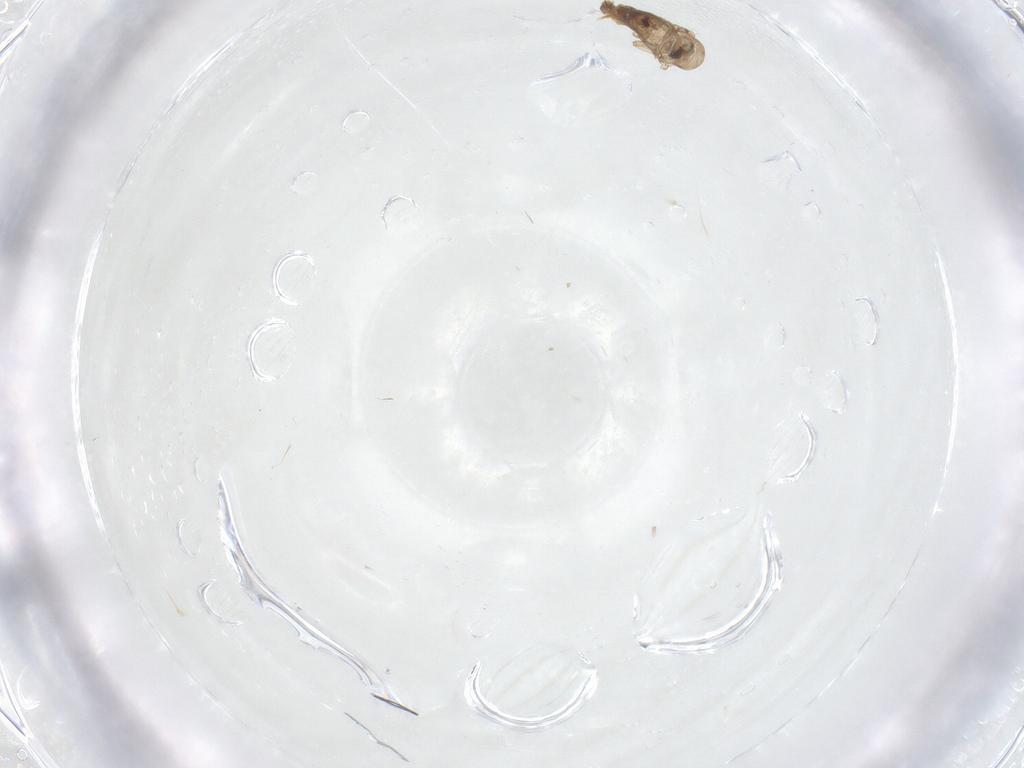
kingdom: Animalia
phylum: Arthropoda
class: Insecta
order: Diptera
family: Psychodidae
